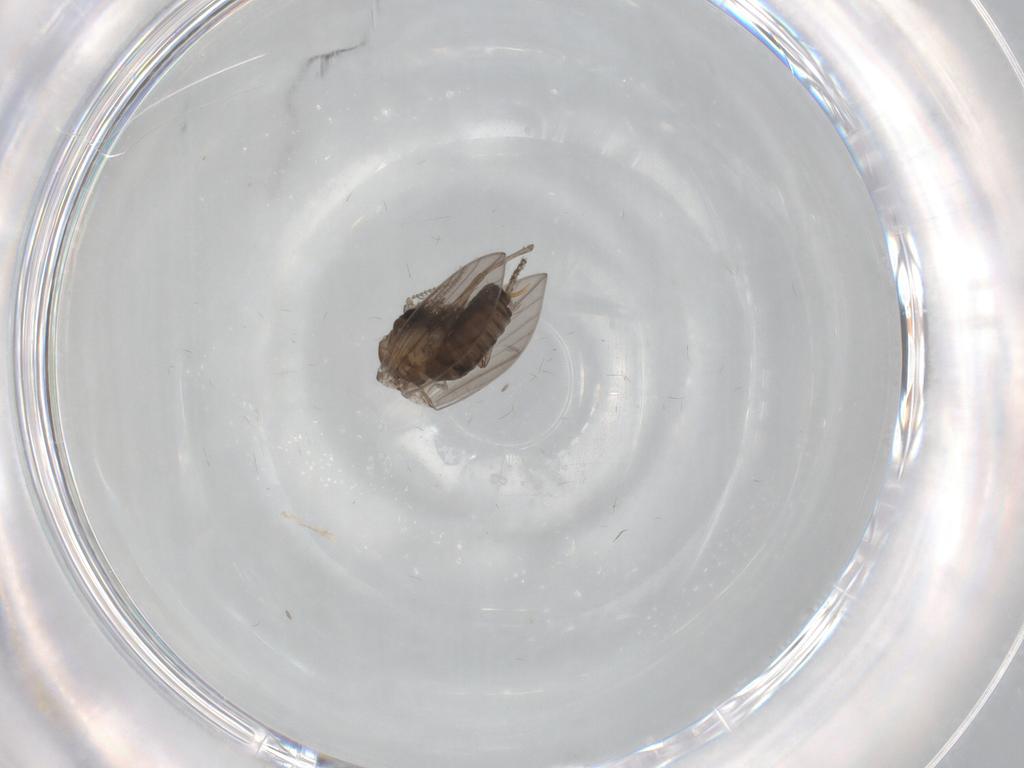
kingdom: Animalia
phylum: Arthropoda
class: Insecta
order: Diptera
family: Psychodidae
